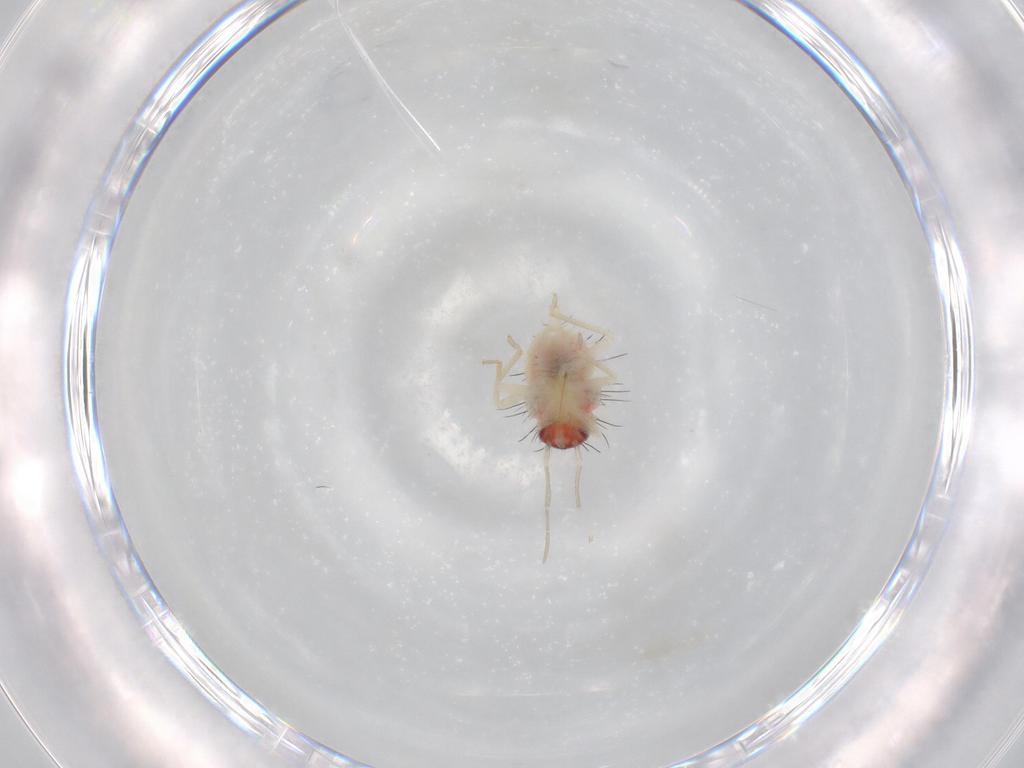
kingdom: Animalia
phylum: Arthropoda
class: Insecta
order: Hemiptera
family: Miridae
